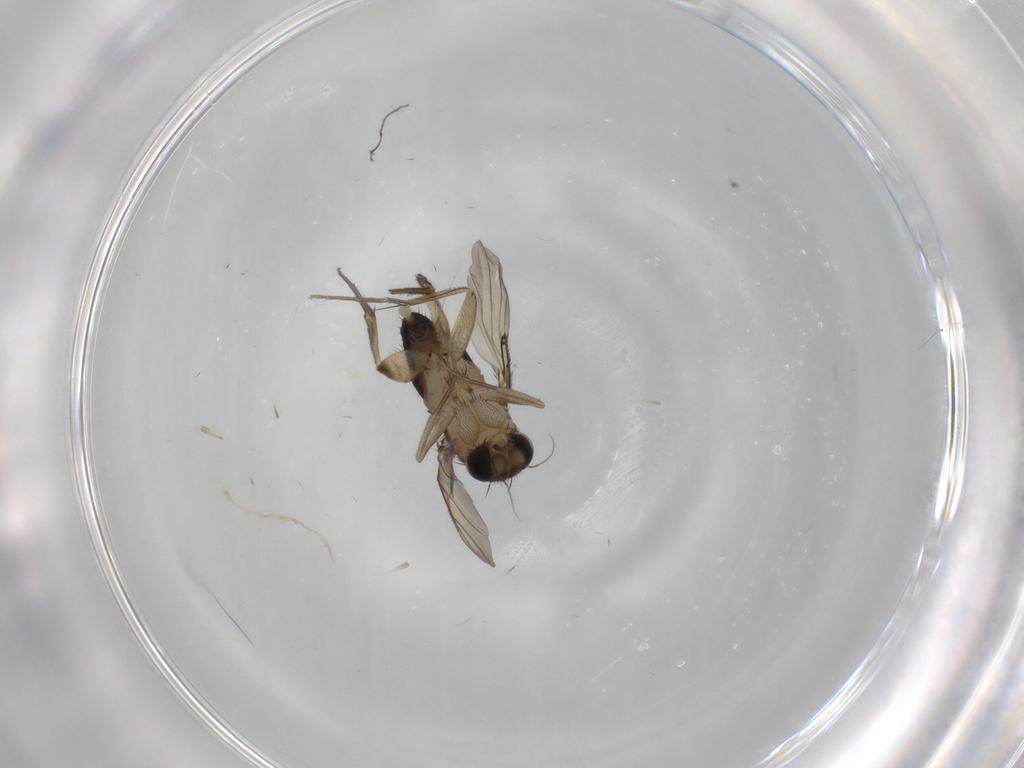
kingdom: Animalia
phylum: Arthropoda
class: Insecta
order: Diptera
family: Phoridae
